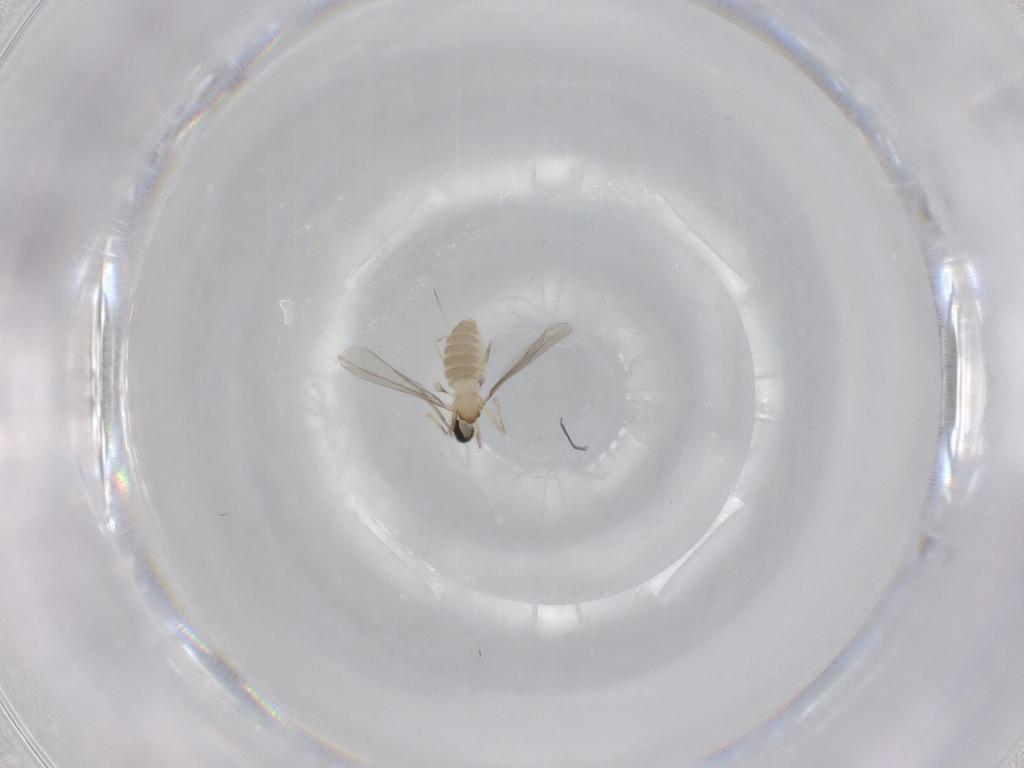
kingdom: Animalia
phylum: Arthropoda
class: Insecta
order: Diptera
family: Cecidomyiidae
